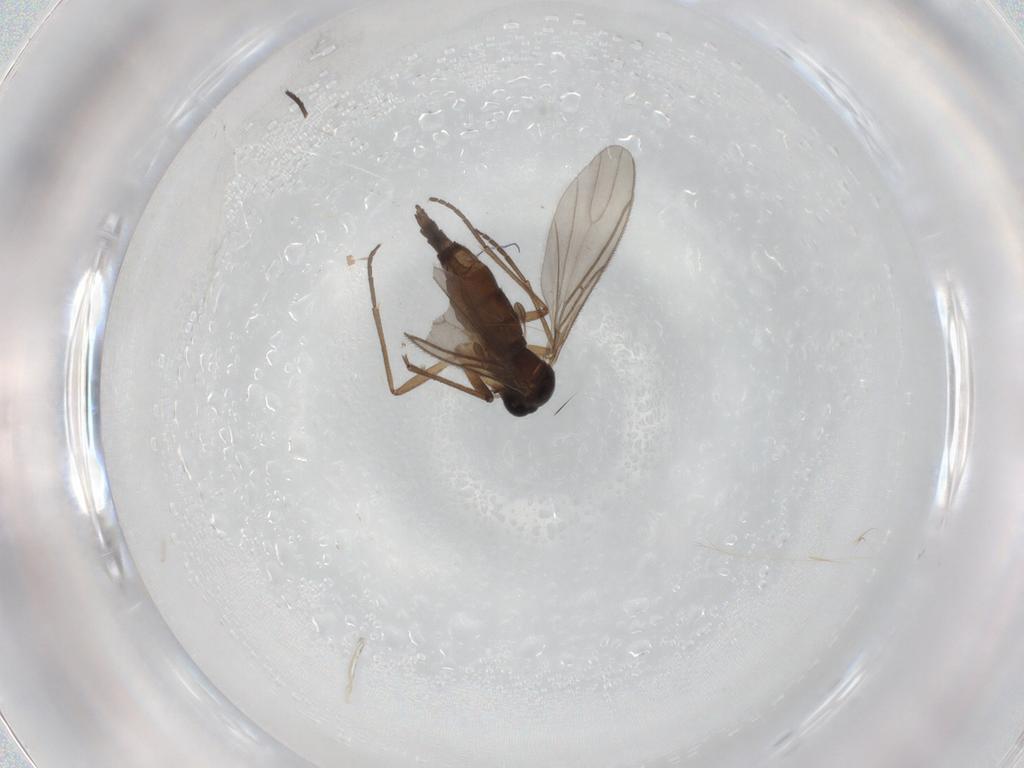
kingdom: Animalia
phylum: Arthropoda
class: Insecta
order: Diptera
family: Sciaridae
